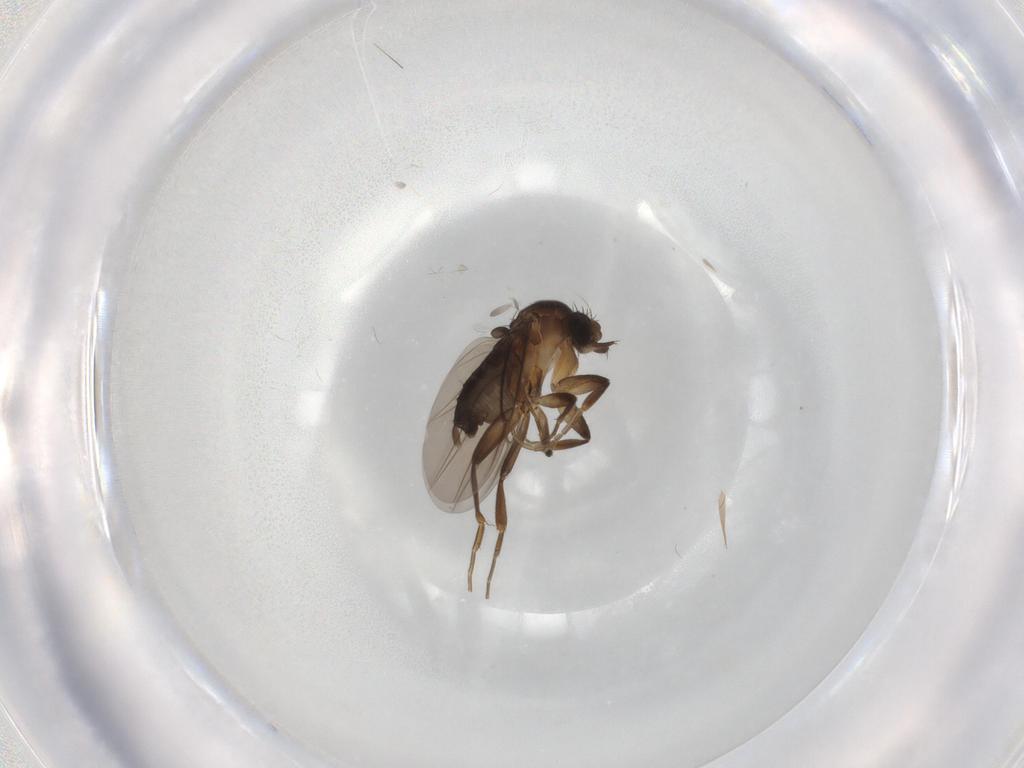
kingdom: Animalia
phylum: Arthropoda
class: Insecta
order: Diptera
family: Phoridae
